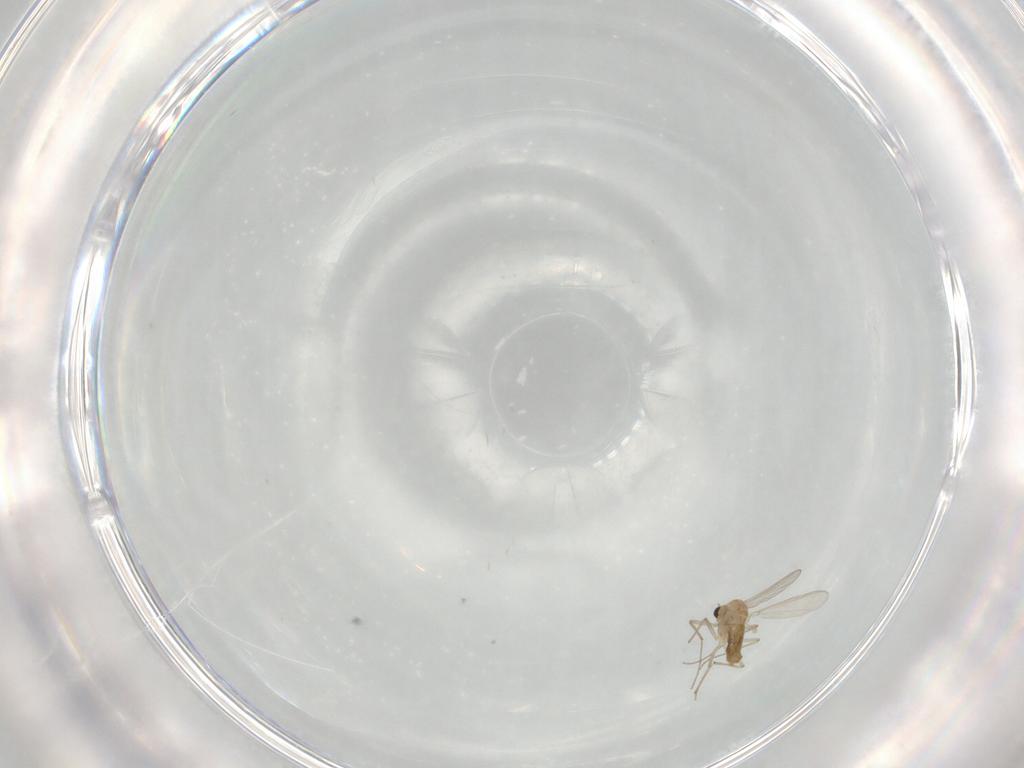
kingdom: Animalia
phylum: Arthropoda
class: Insecta
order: Diptera
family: Chironomidae
